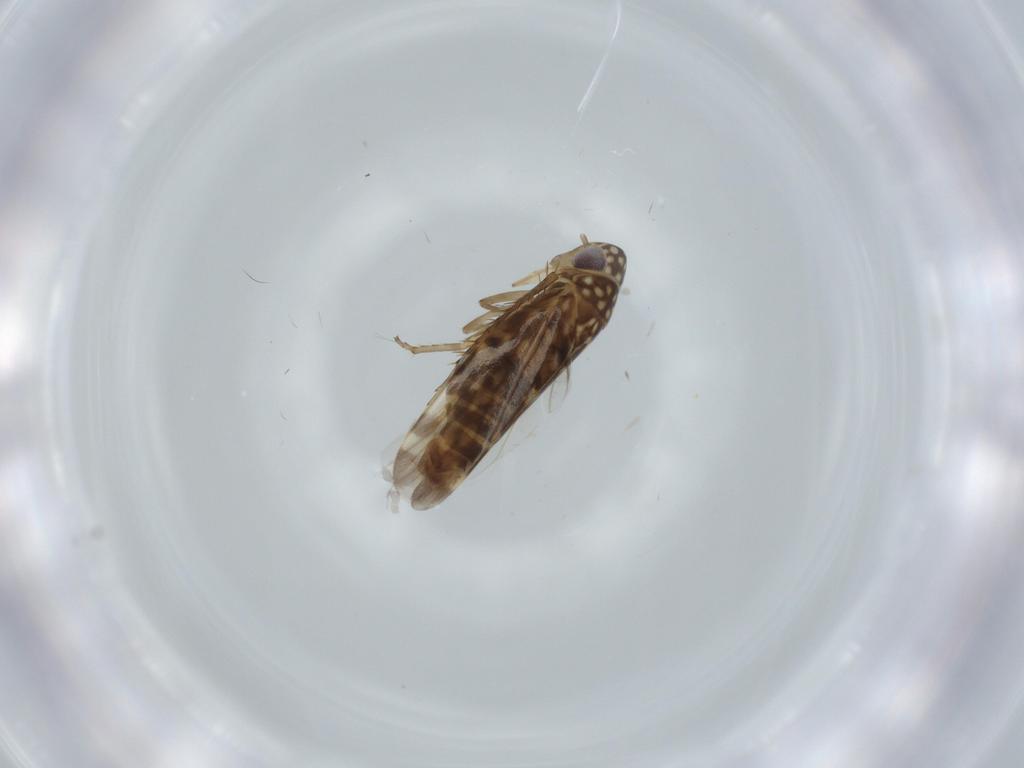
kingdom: Animalia
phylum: Arthropoda
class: Insecta
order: Hemiptera
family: Cicadellidae
